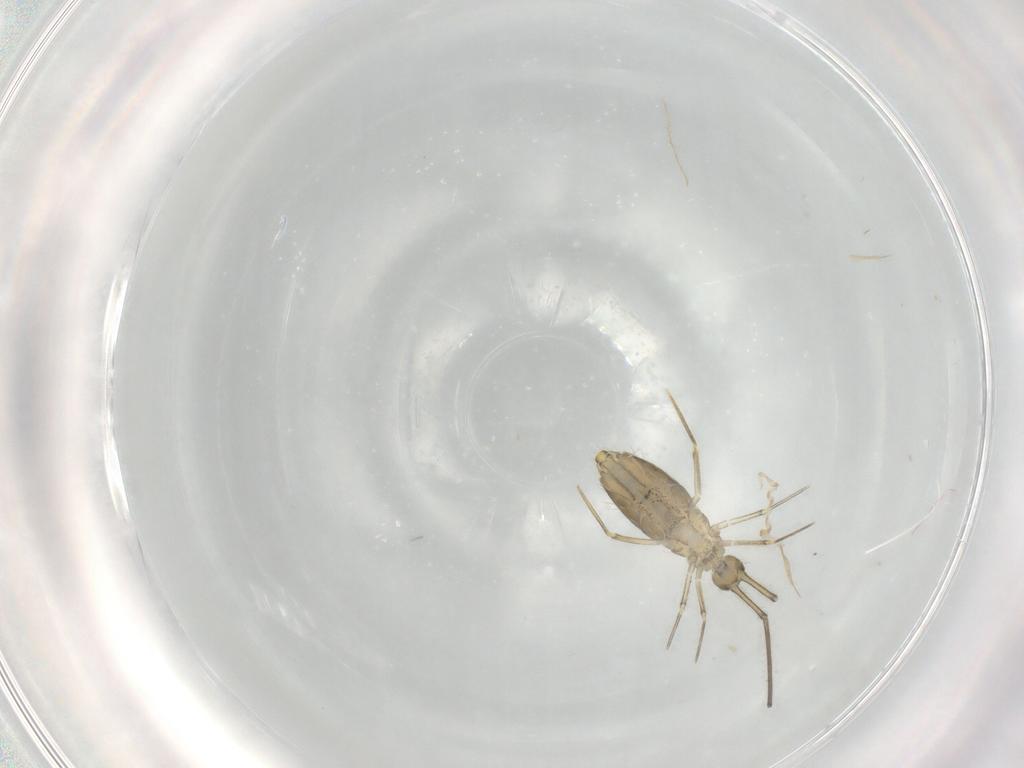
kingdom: Animalia
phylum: Arthropoda
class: Collembola
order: Entomobryomorpha
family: Paronellidae
